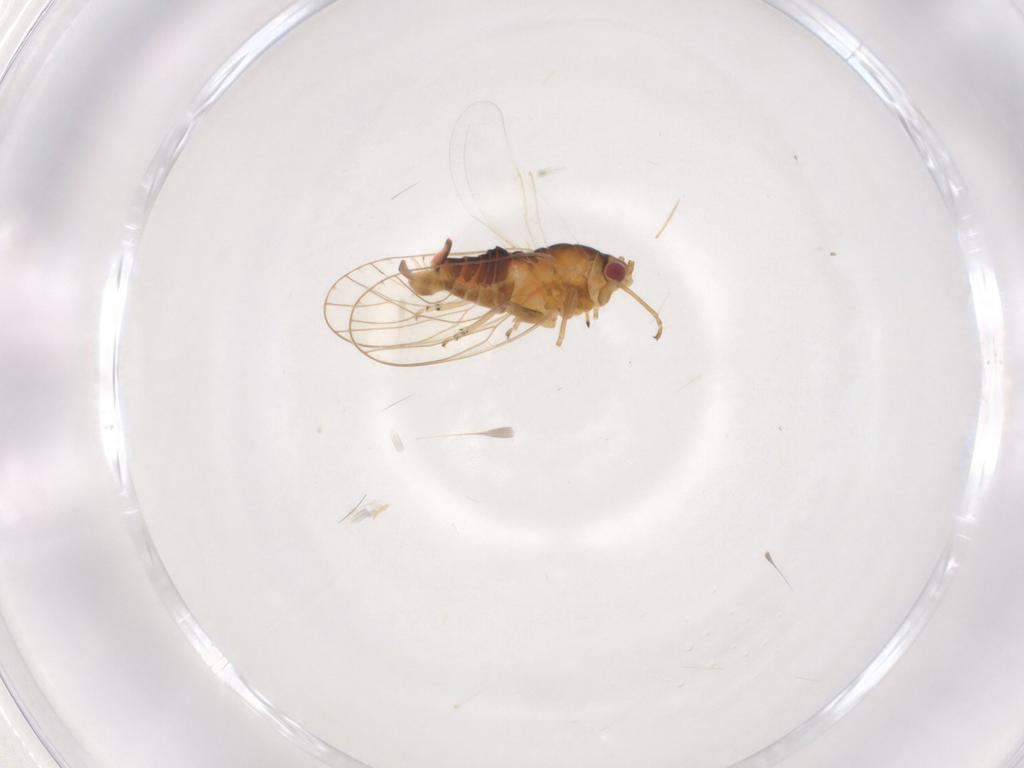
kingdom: Animalia
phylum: Arthropoda
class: Insecta
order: Hemiptera
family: Psyllidae
